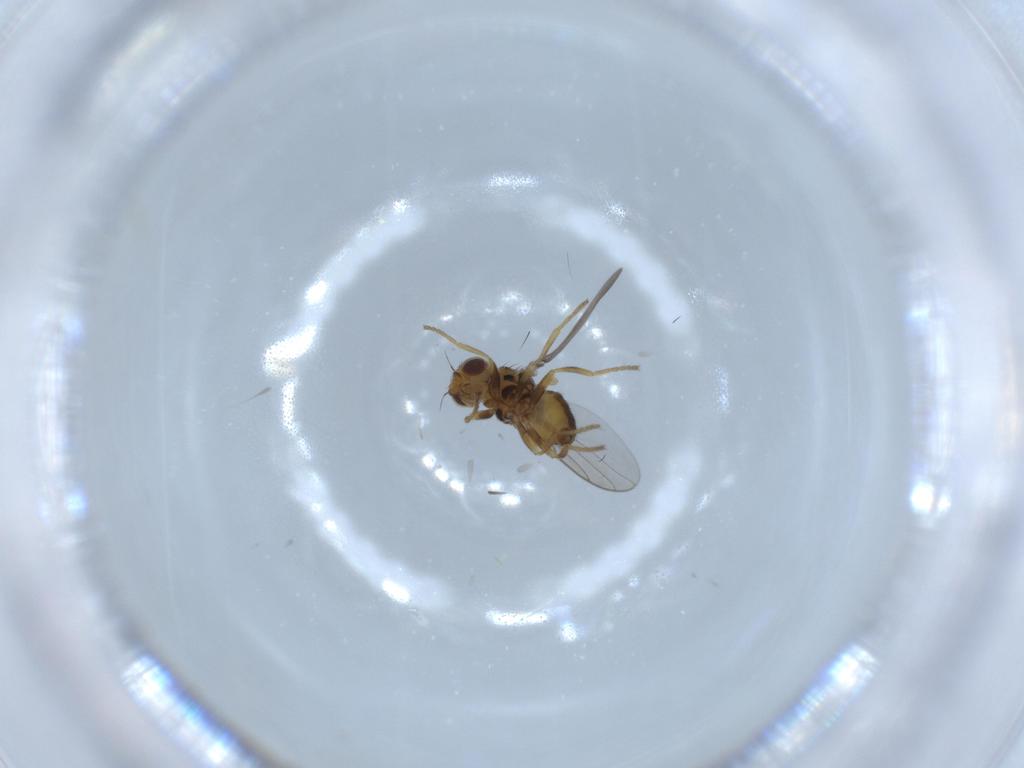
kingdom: Animalia
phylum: Arthropoda
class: Insecta
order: Diptera
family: Chloropidae
